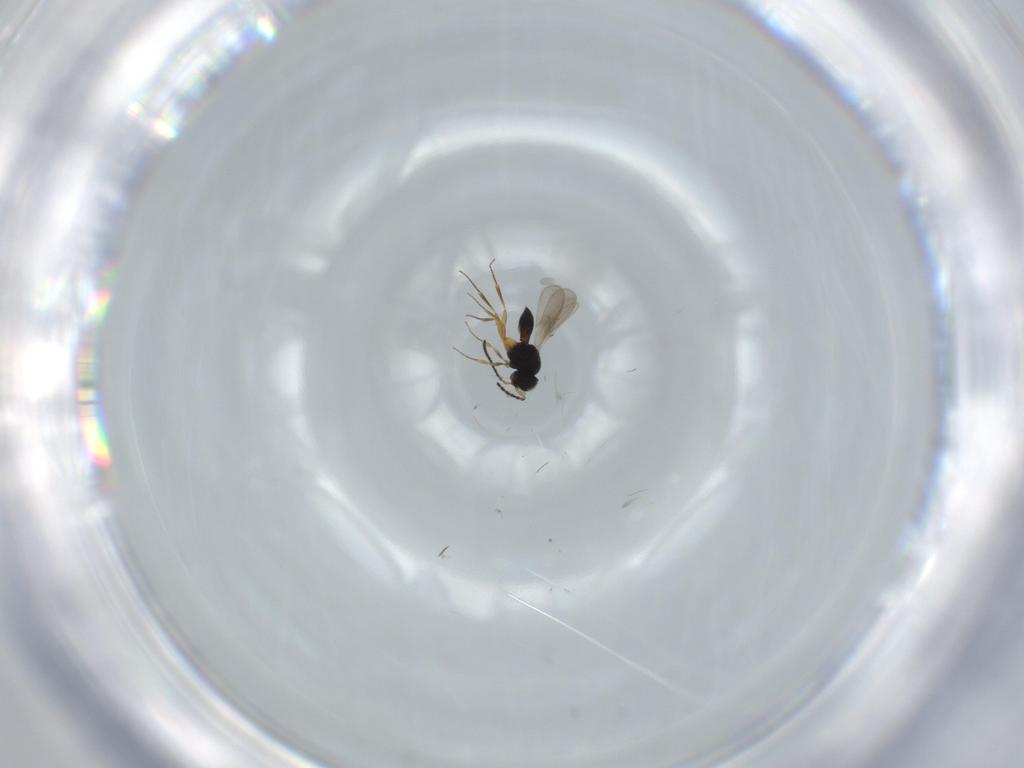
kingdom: Animalia
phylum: Arthropoda
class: Insecta
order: Hymenoptera
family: Scelionidae
